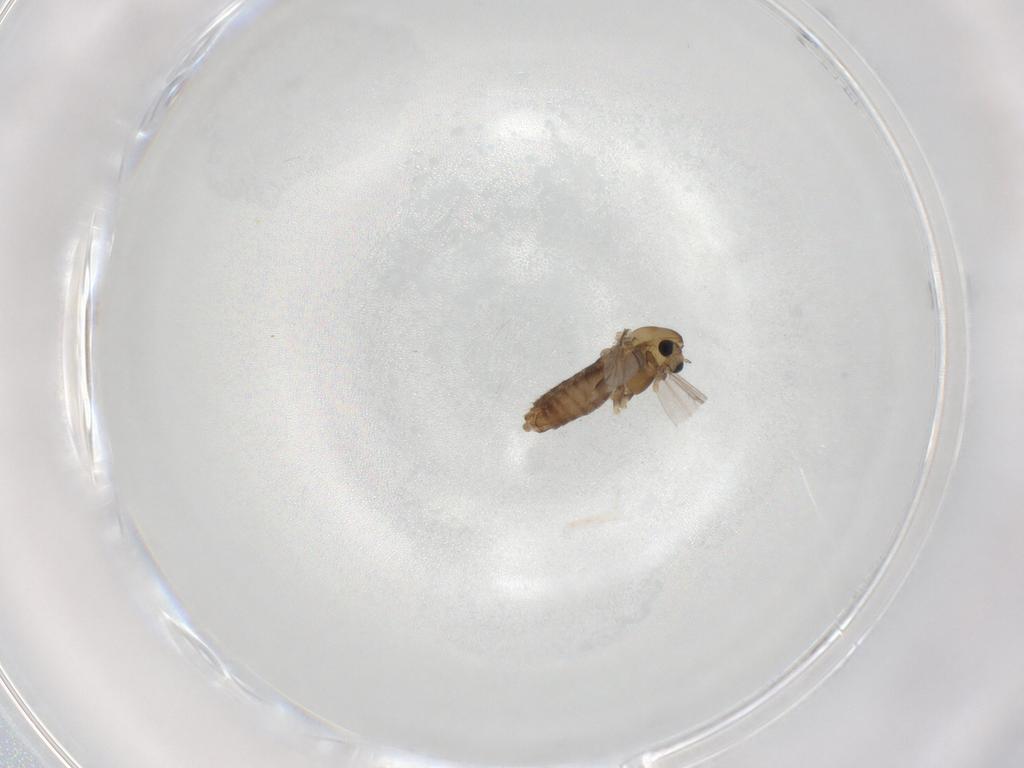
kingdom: Animalia
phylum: Arthropoda
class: Insecta
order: Diptera
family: Chironomidae
